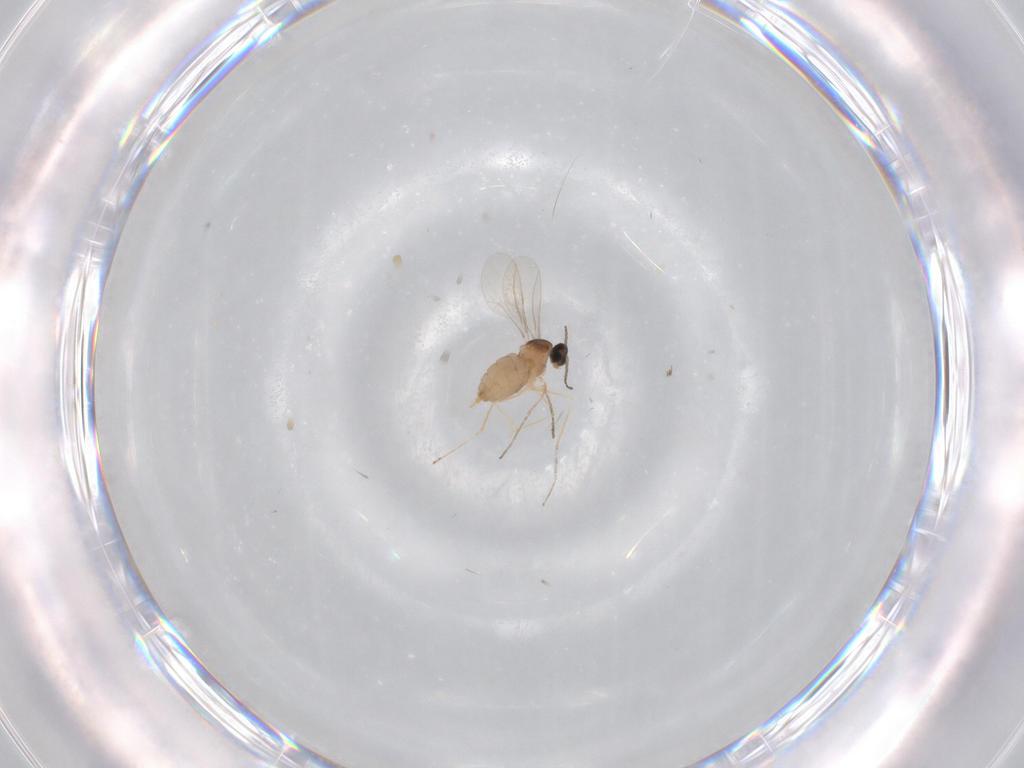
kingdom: Animalia
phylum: Arthropoda
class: Insecta
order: Diptera
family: Cecidomyiidae
